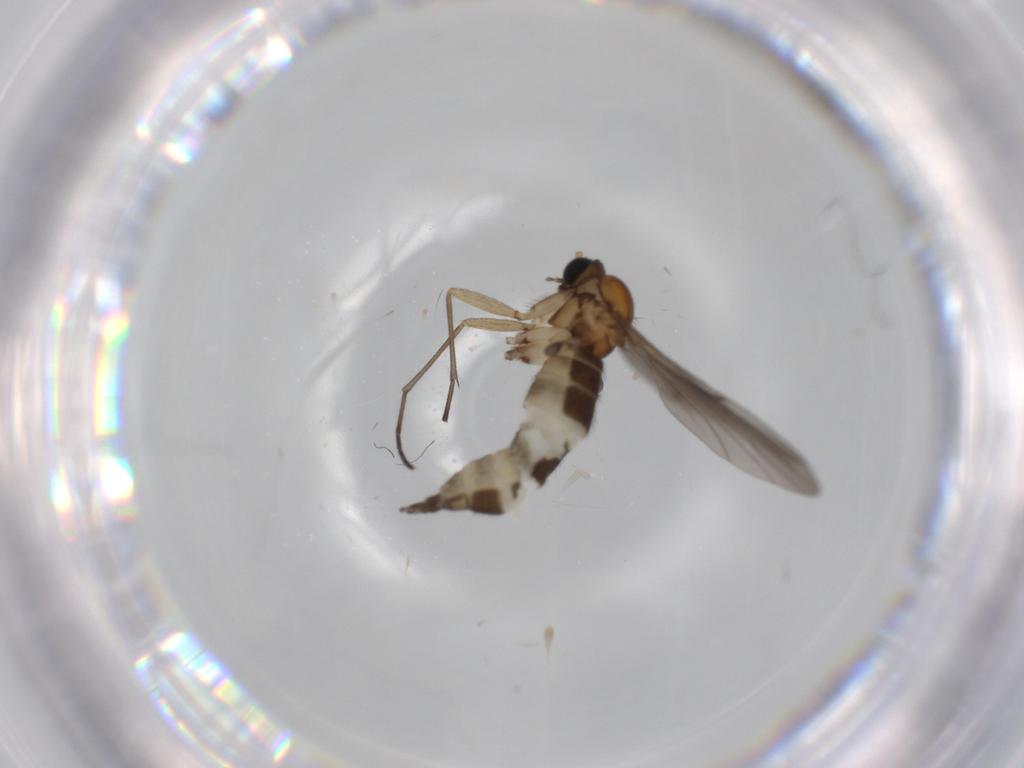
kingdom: Animalia
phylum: Arthropoda
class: Insecta
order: Diptera
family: Sciaridae
